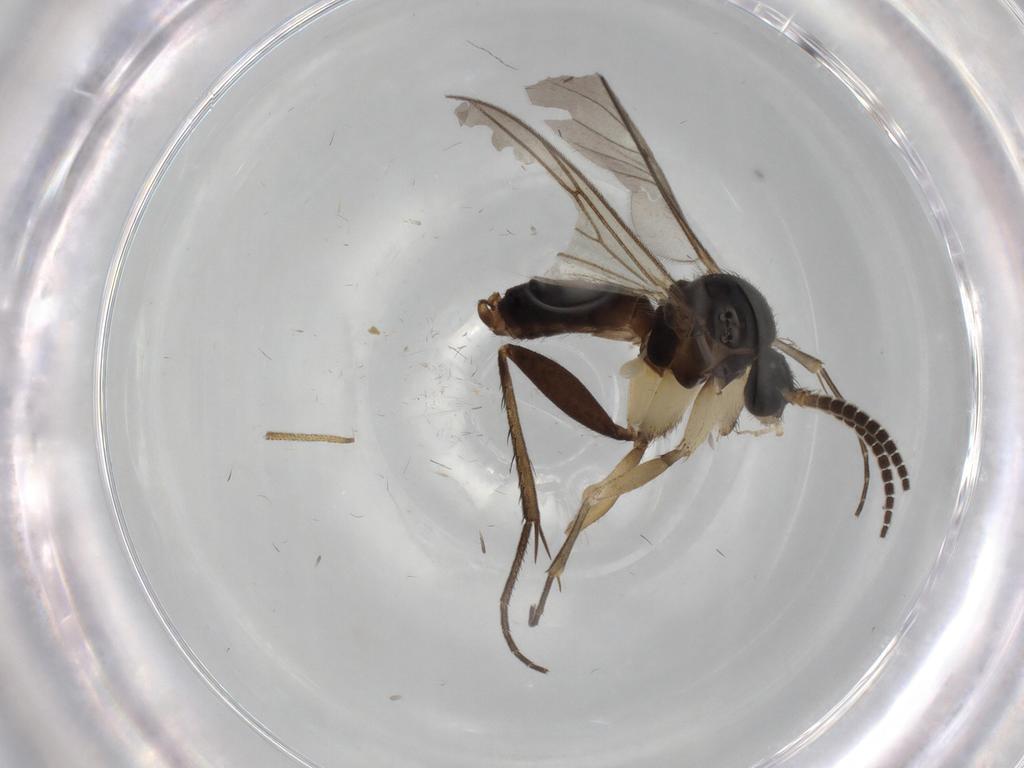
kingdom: Animalia
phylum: Arthropoda
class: Insecta
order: Diptera
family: Mycetophilidae
